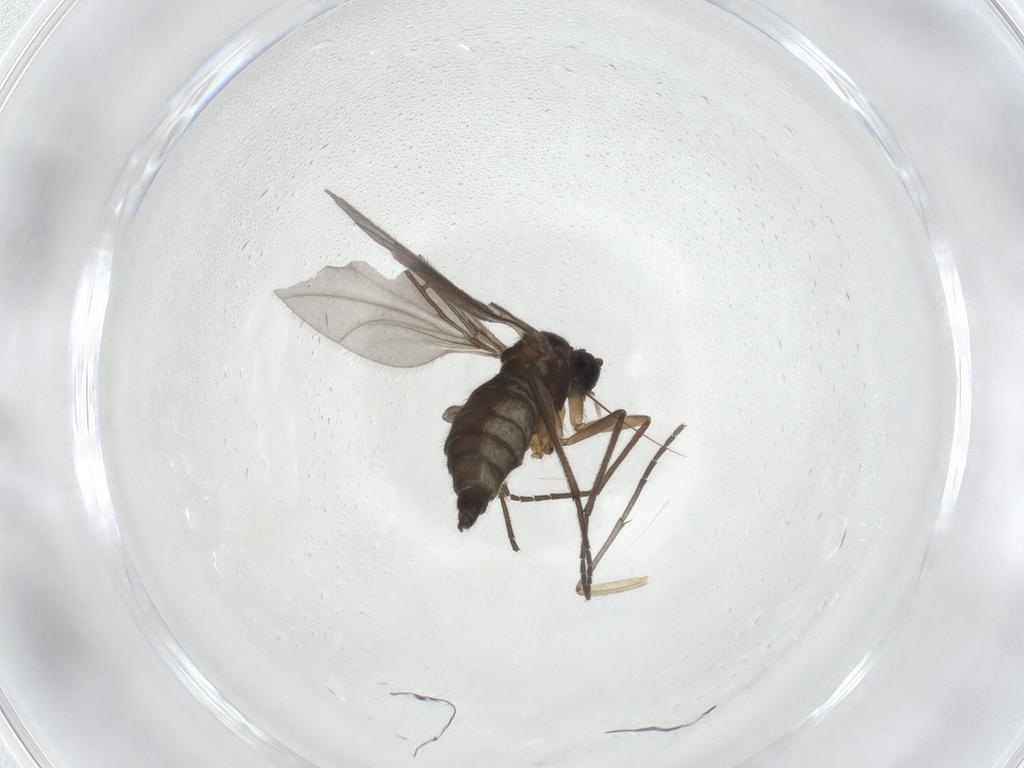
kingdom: Animalia
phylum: Arthropoda
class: Insecta
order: Diptera
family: Sciaridae
